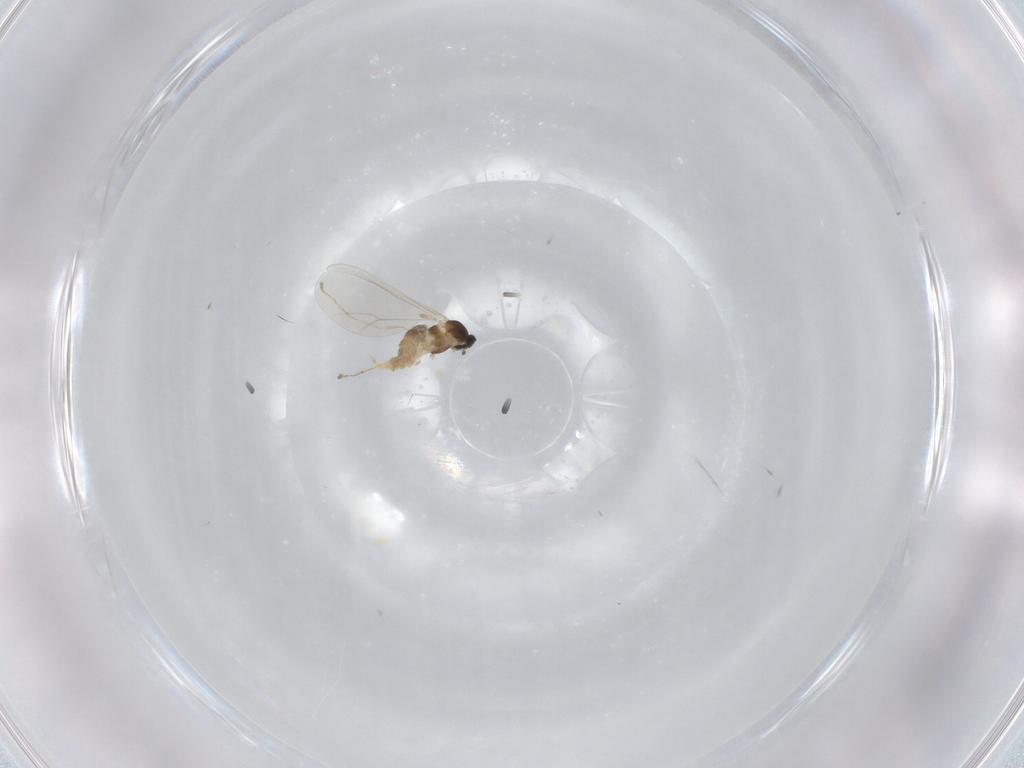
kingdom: Animalia
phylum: Arthropoda
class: Insecta
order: Diptera
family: Cecidomyiidae
